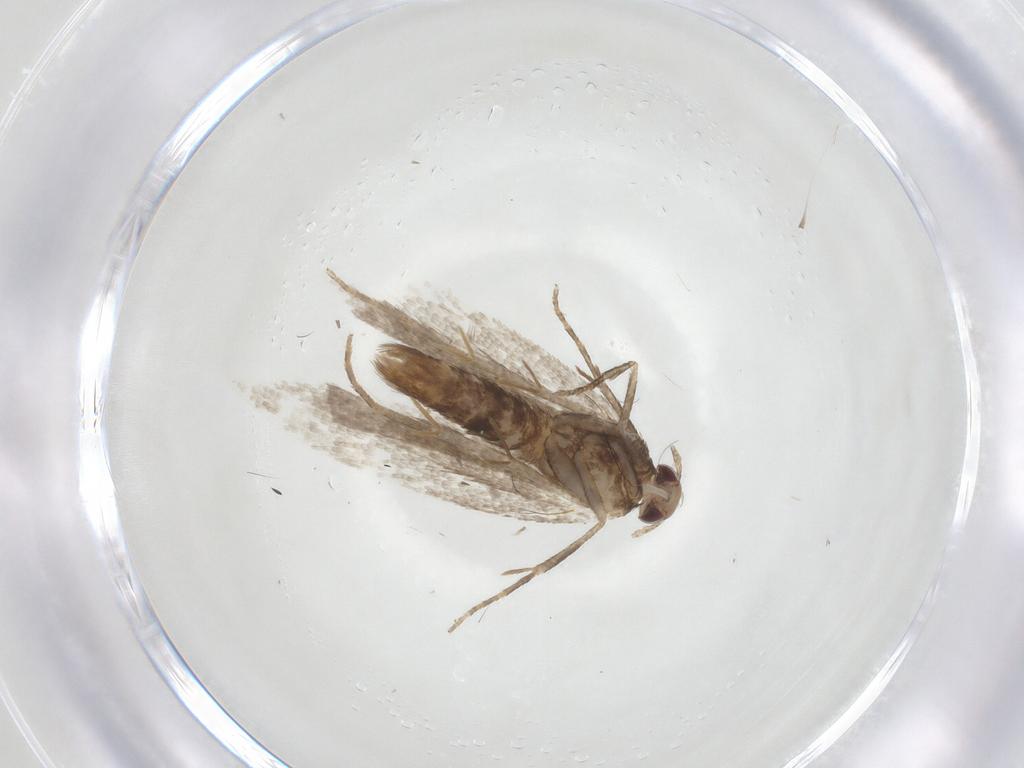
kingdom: Animalia
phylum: Arthropoda
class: Insecta
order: Lepidoptera
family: Gelechiidae
